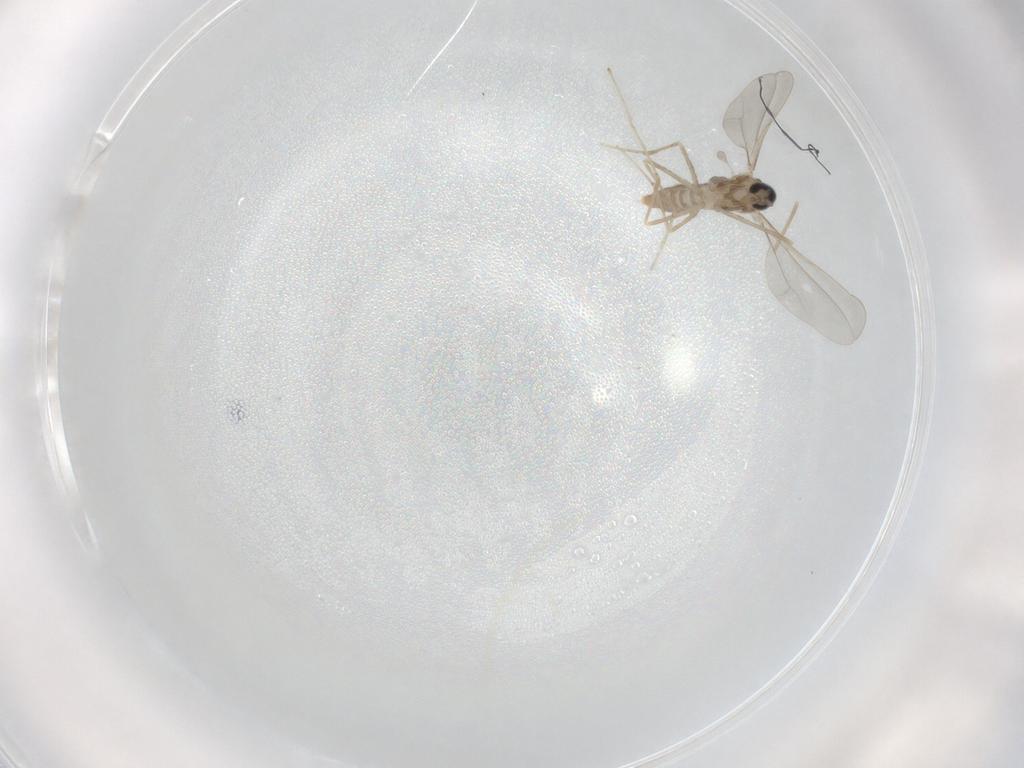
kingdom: Animalia
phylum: Arthropoda
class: Insecta
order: Diptera
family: Cecidomyiidae
